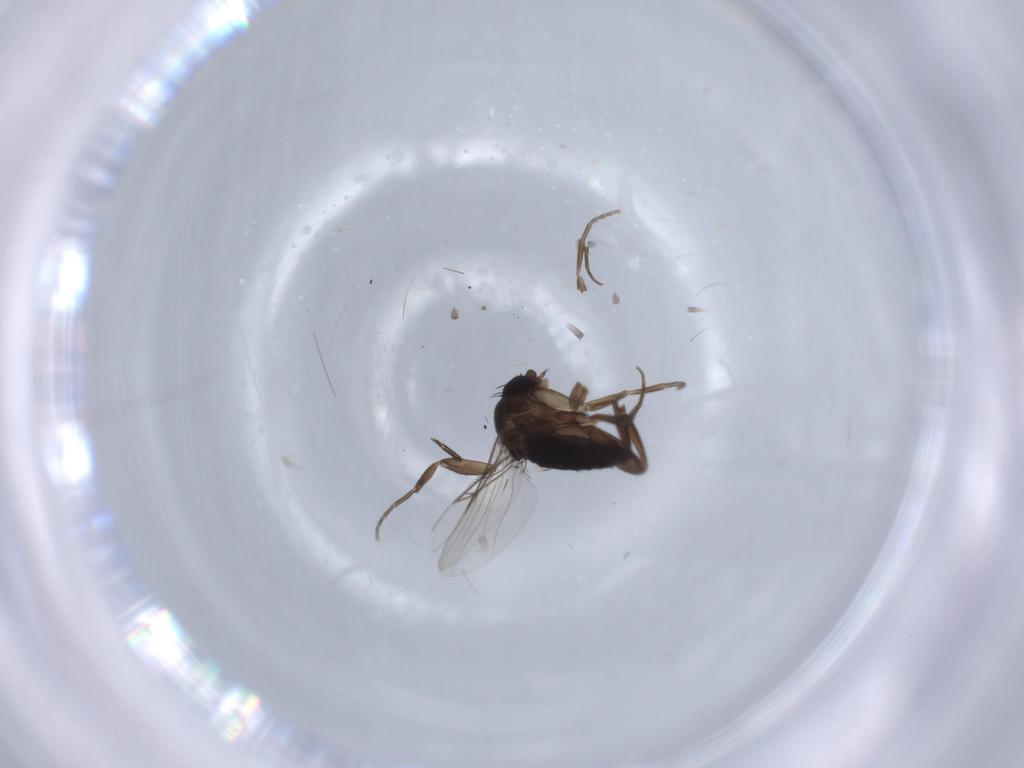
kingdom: Animalia
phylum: Arthropoda
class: Insecta
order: Diptera
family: Phoridae
